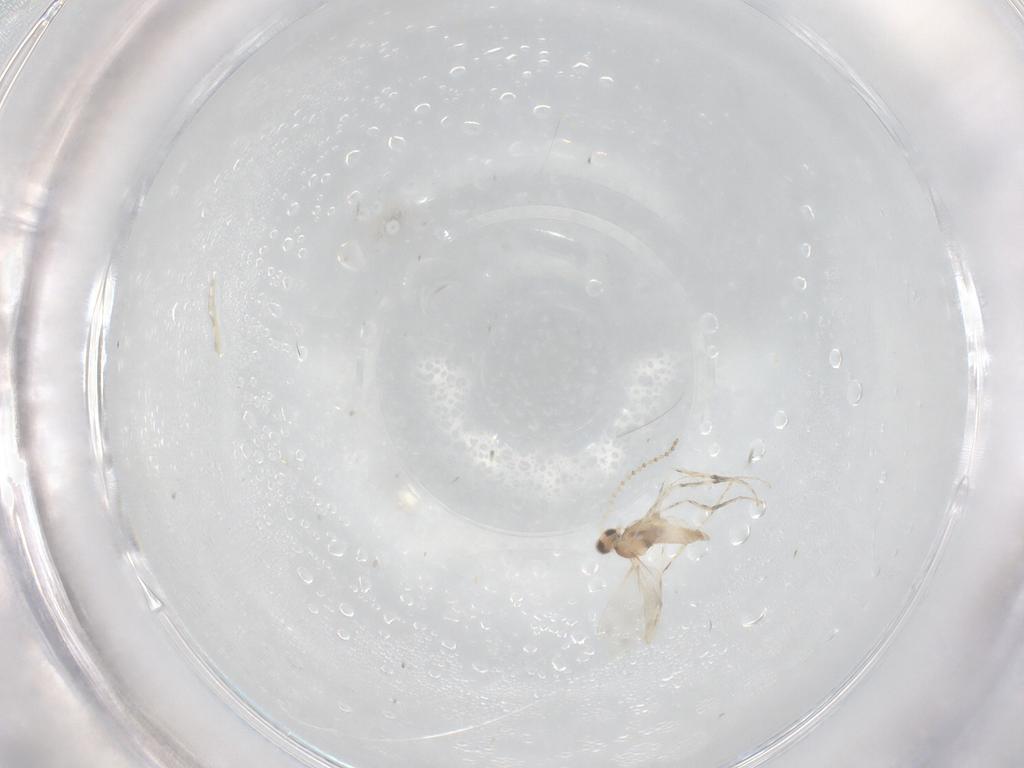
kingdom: Animalia
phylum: Arthropoda
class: Insecta
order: Diptera
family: Cecidomyiidae
